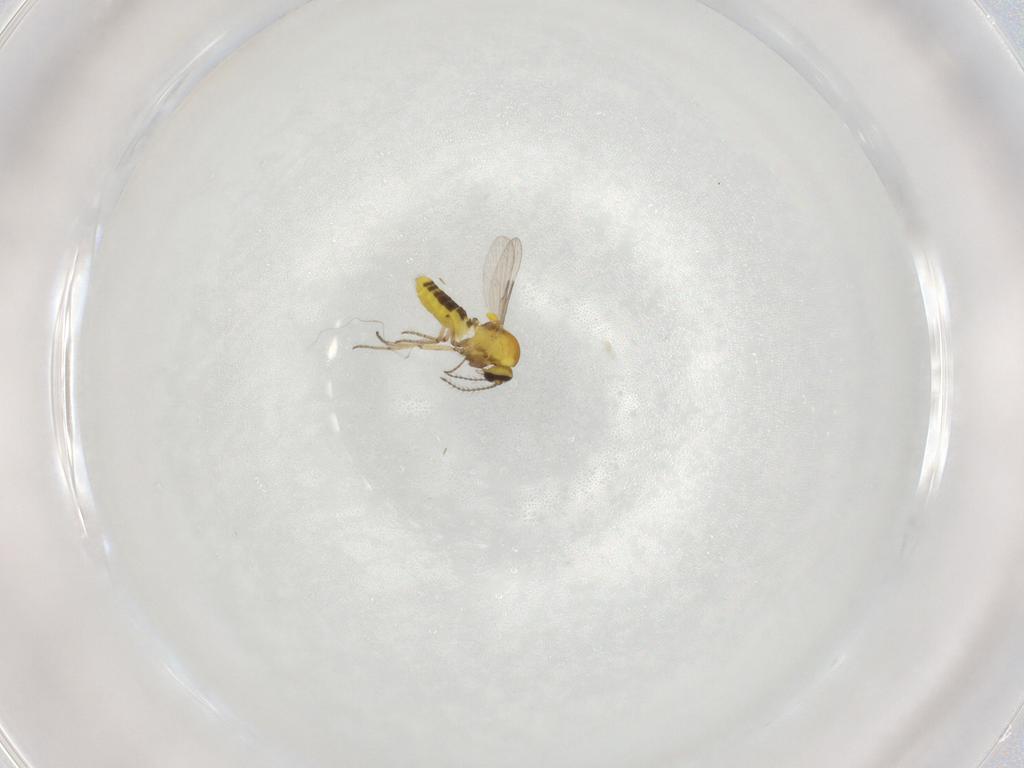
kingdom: Animalia
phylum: Arthropoda
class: Insecta
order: Diptera
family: Ceratopogonidae
